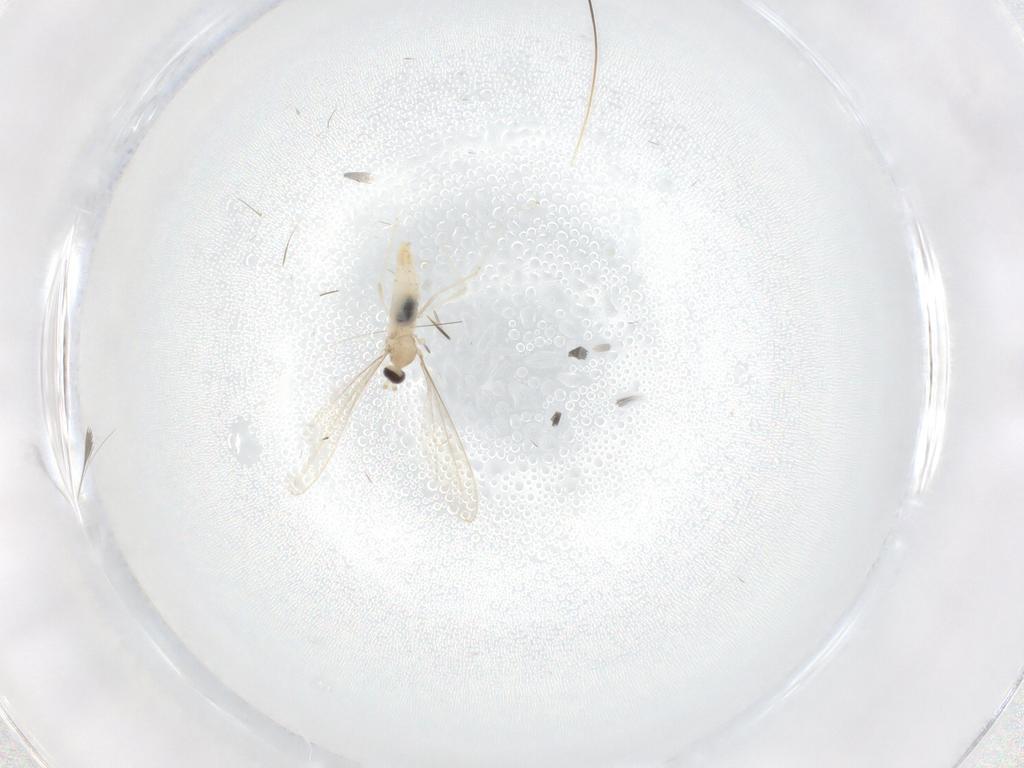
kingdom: Animalia
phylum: Arthropoda
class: Insecta
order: Diptera
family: Cecidomyiidae
